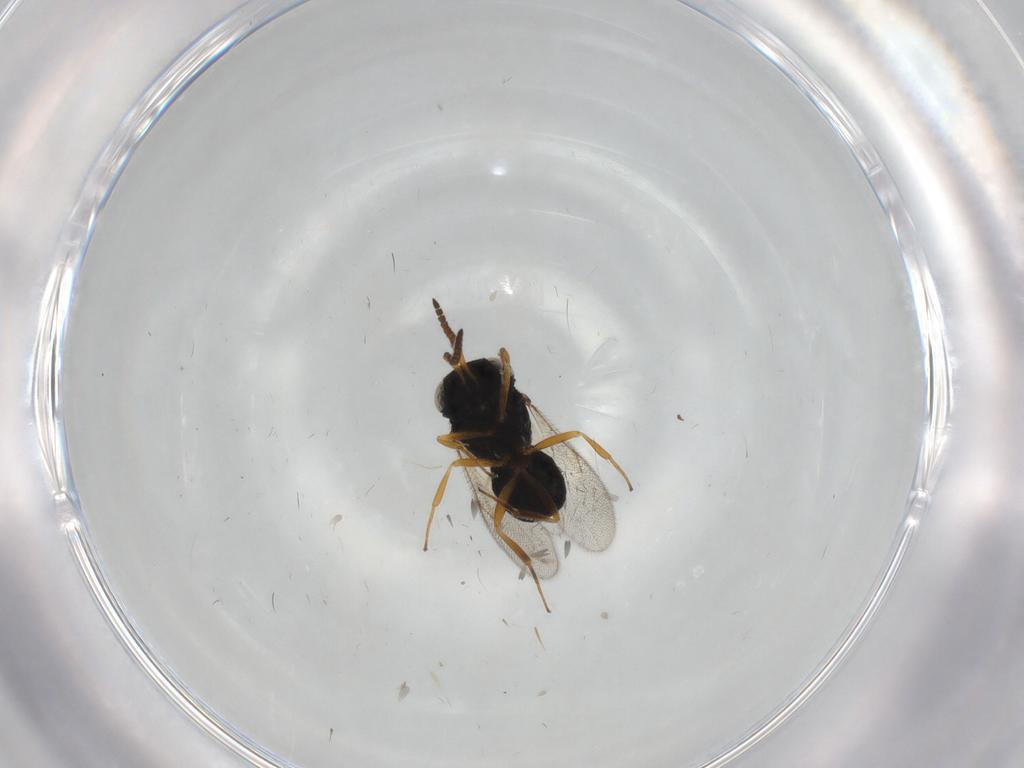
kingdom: Animalia
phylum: Arthropoda
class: Insecta
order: Hymenoptera
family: Scelionidae
